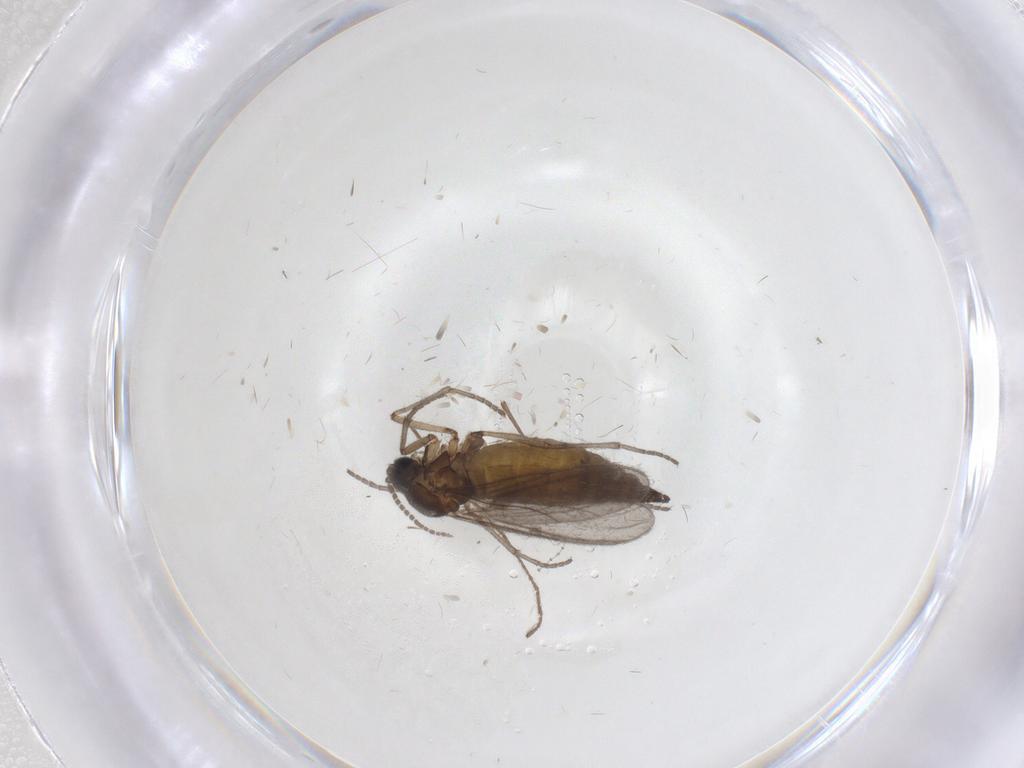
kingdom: Animalia
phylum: Arthropoda
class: Insecta
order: Diptera
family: Sciaridae
